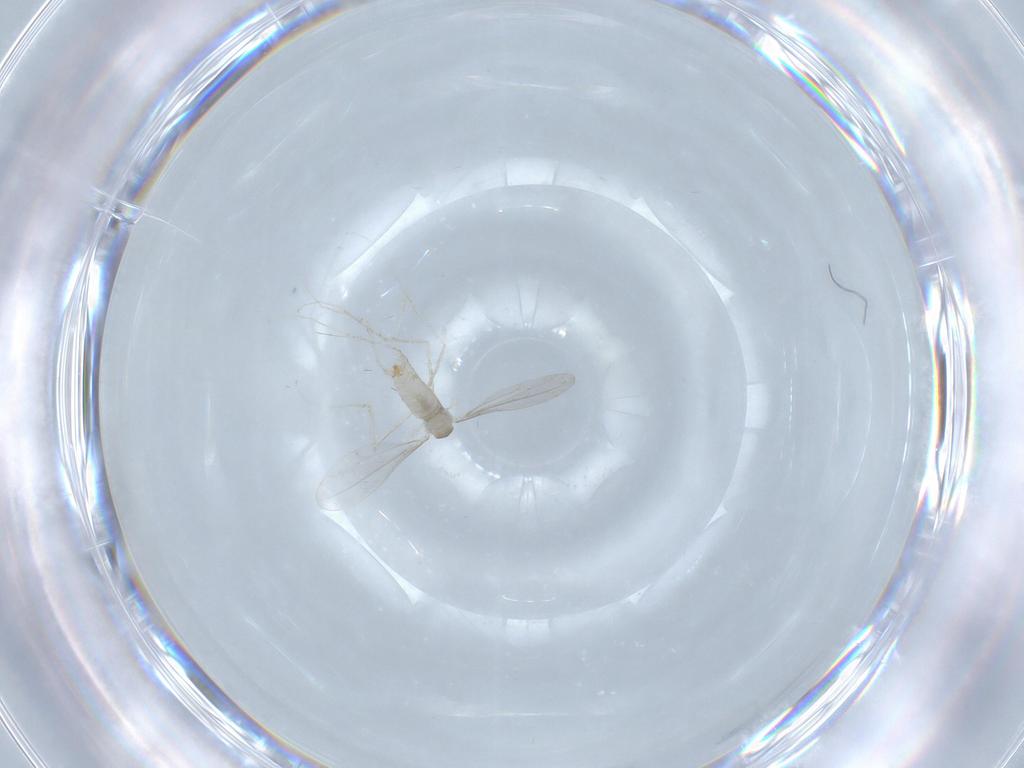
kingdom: Animalia
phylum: Arthropoda
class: Insecta
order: Diptera
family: Cecidomyiidae
